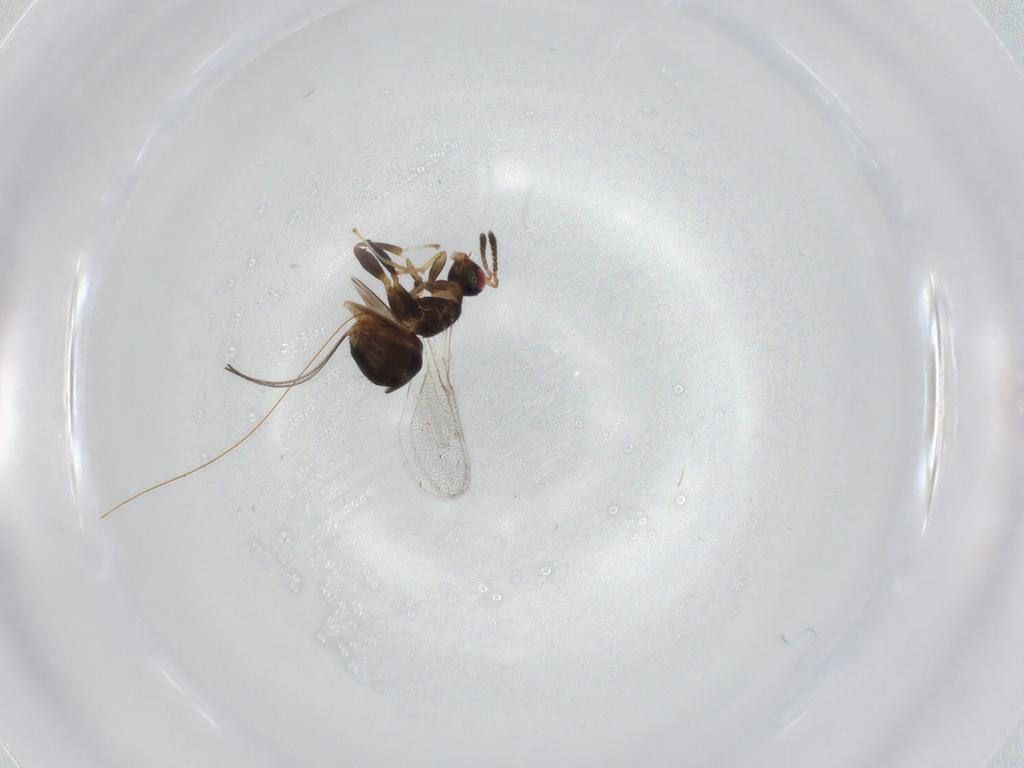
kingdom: Animalia
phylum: Arthropoda
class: Insecta
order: Hymenoptera
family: Torymidae
